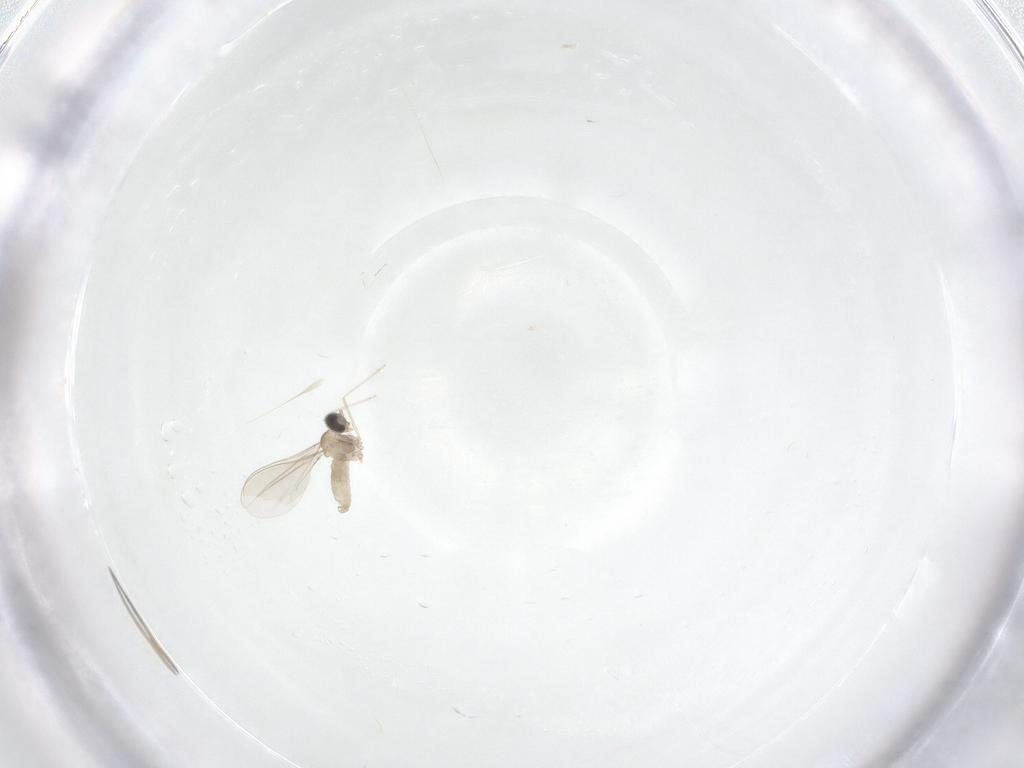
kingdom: Animalia
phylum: Arthropoda
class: Insecta
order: Diptera
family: Cecidomyiidae
